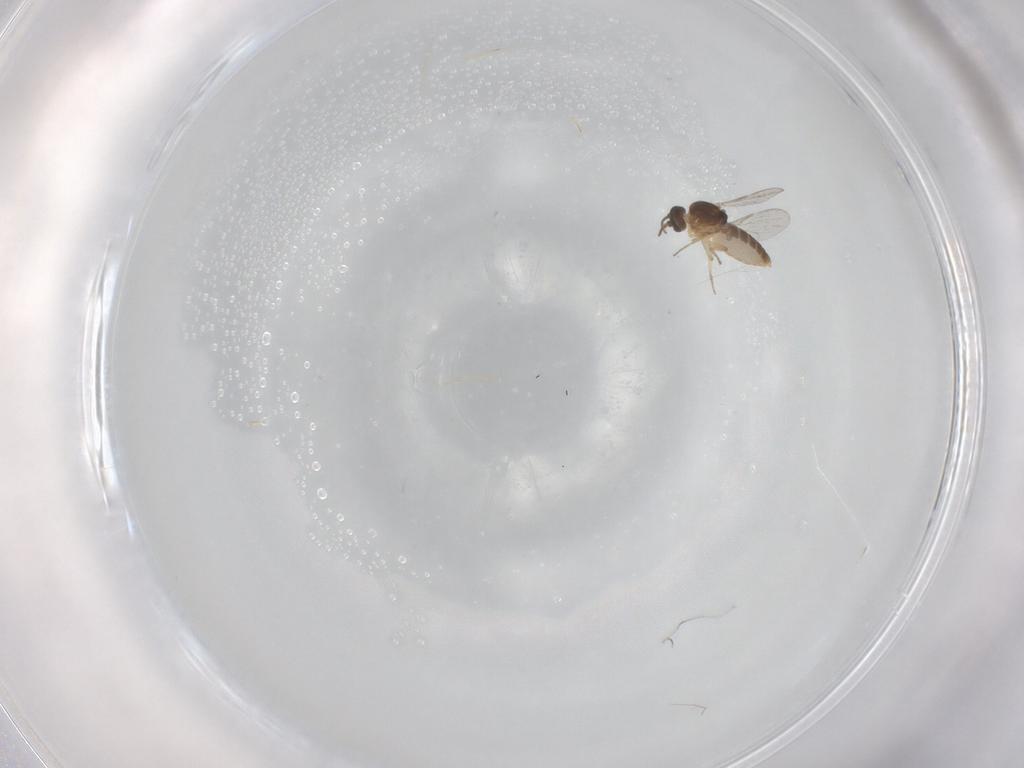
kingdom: Animalia
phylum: Arthropoda
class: Insecta
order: Diptera
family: Ceratopogonidae
